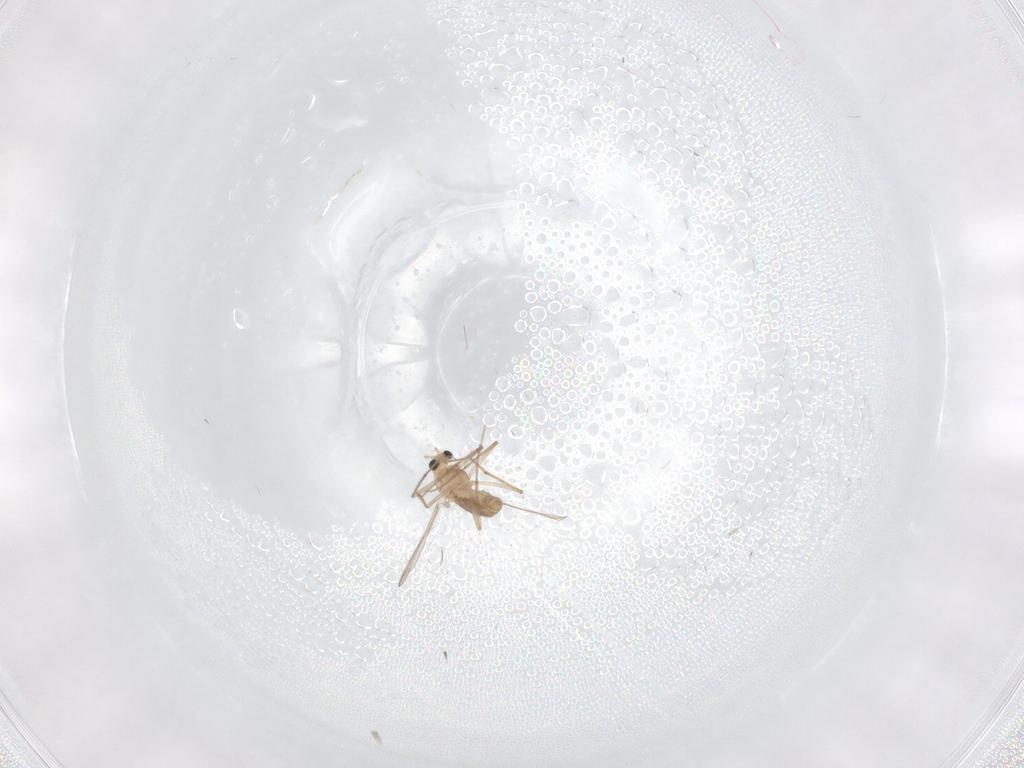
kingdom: Animalia
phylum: Arthropoda
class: Insecta
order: Diptera
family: Chironomidae
